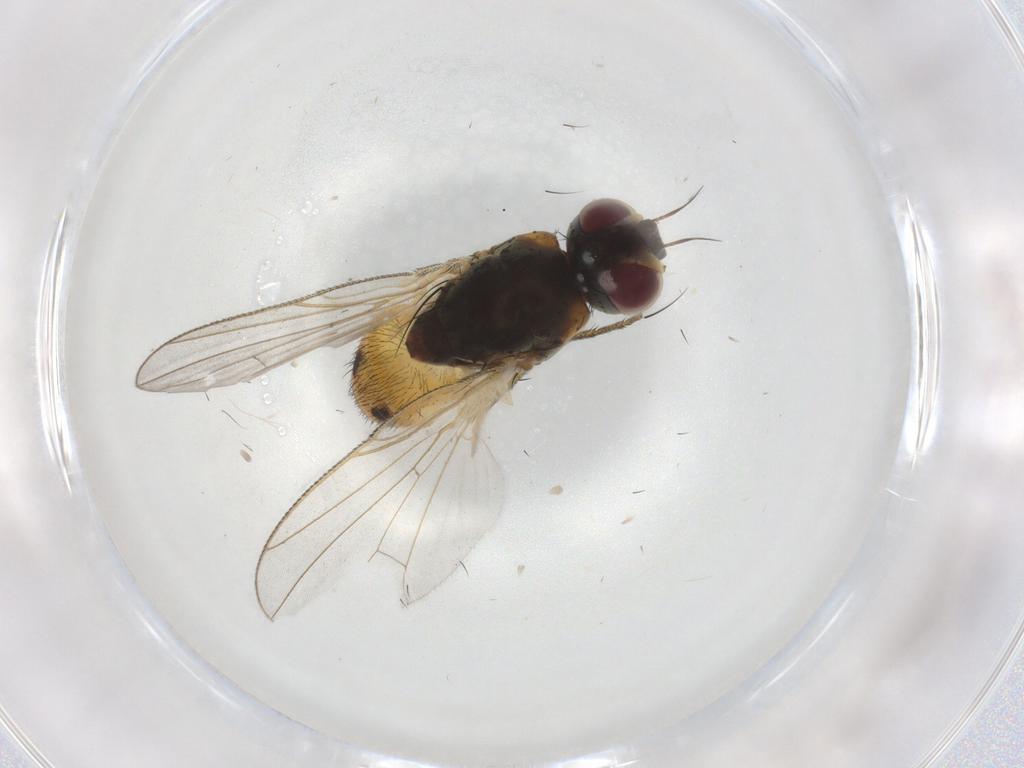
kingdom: Animalia
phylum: Arthropoda
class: Insecta
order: Diptera
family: Muscidae
